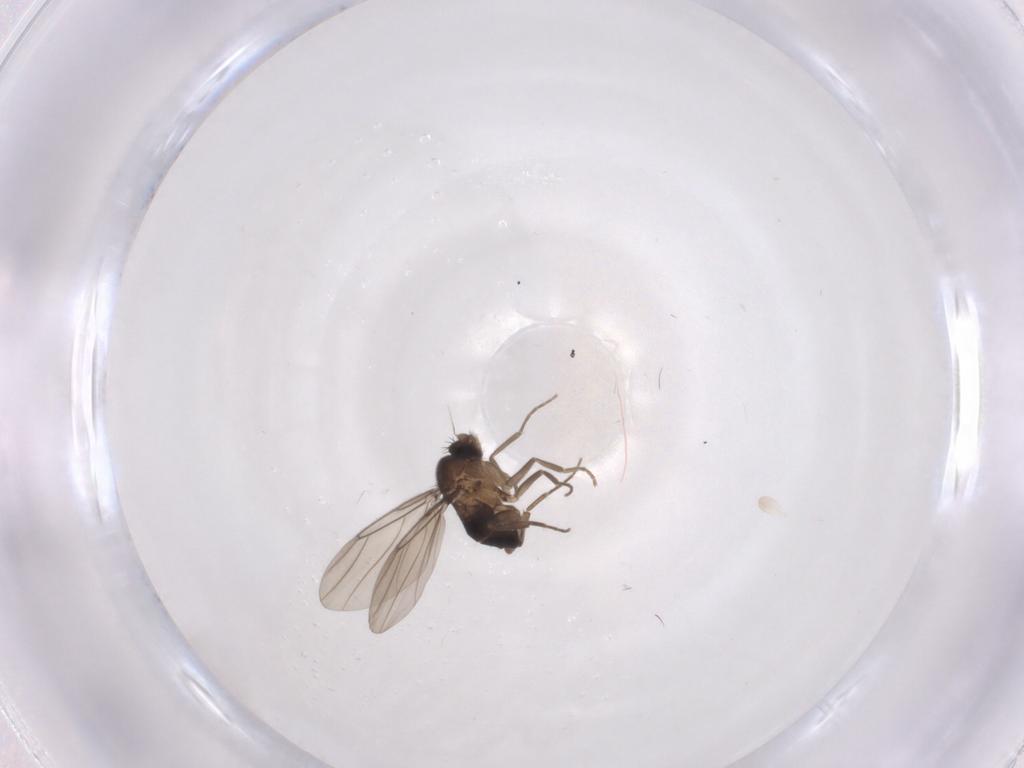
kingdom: Animalia
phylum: Arthropoda
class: Insecta
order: Diptera
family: Phoridae
